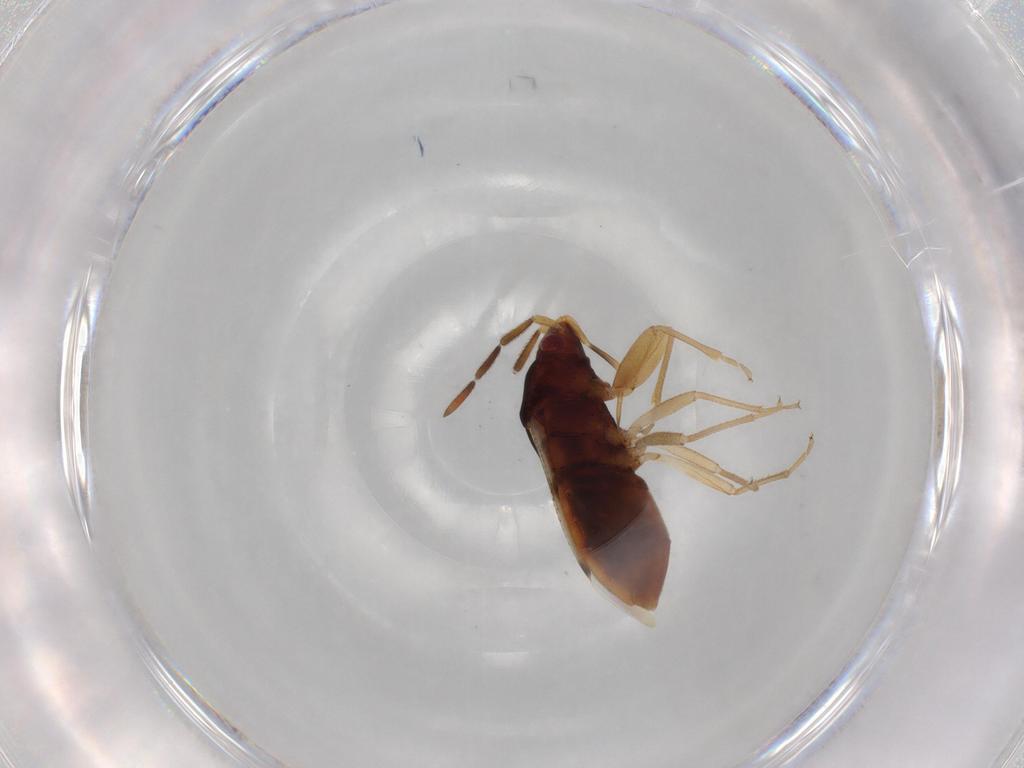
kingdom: Animalia
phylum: Arthropoda
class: Insecta
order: Hemiptera
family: Rhyparochromidae
